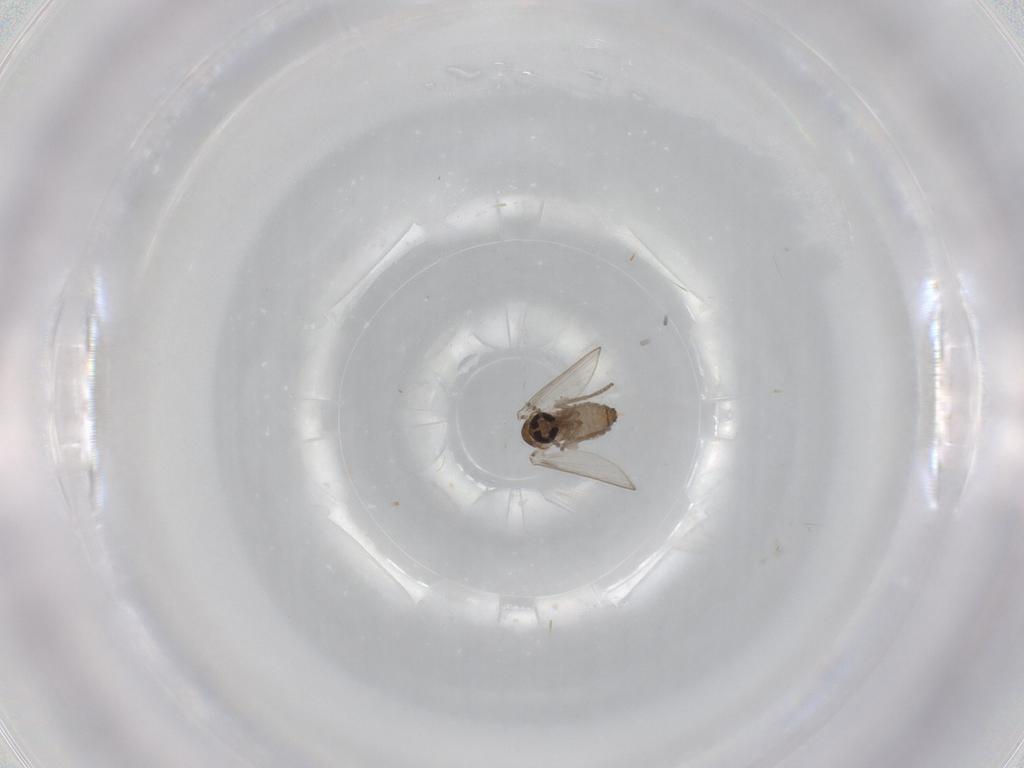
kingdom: Animalia
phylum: Arthropoda
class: Insecta
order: Diptera
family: Psychodidae
